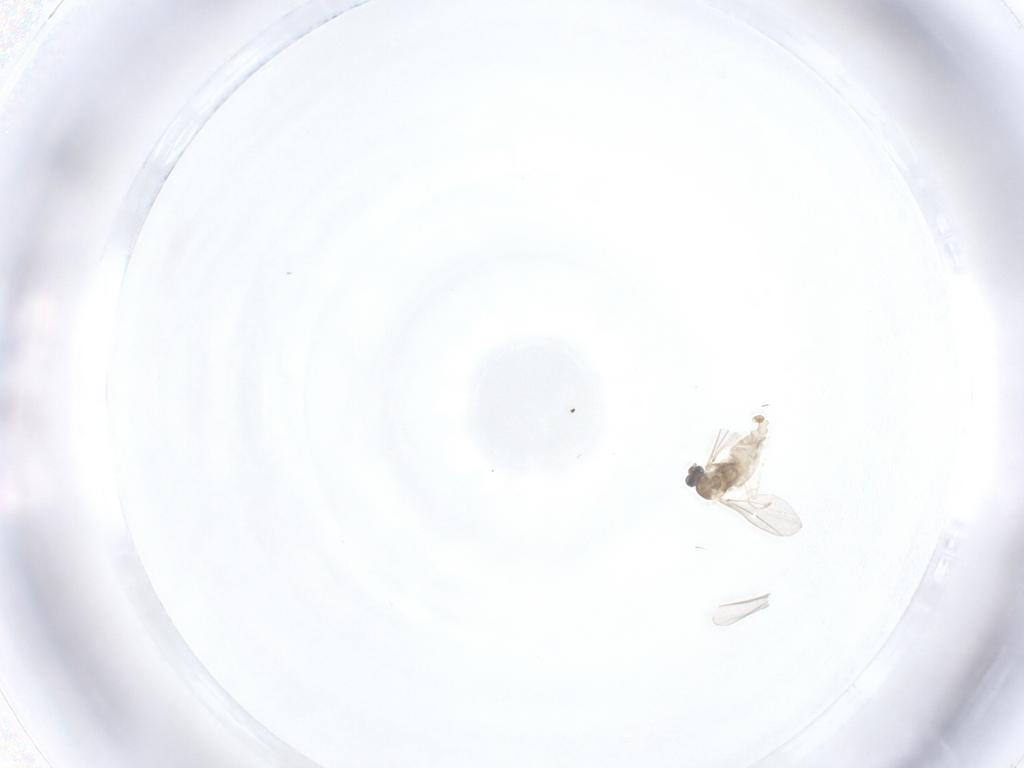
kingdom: Animalia
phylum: Arthropoda
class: Insecta
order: Diptera
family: Cecidomyiidae
